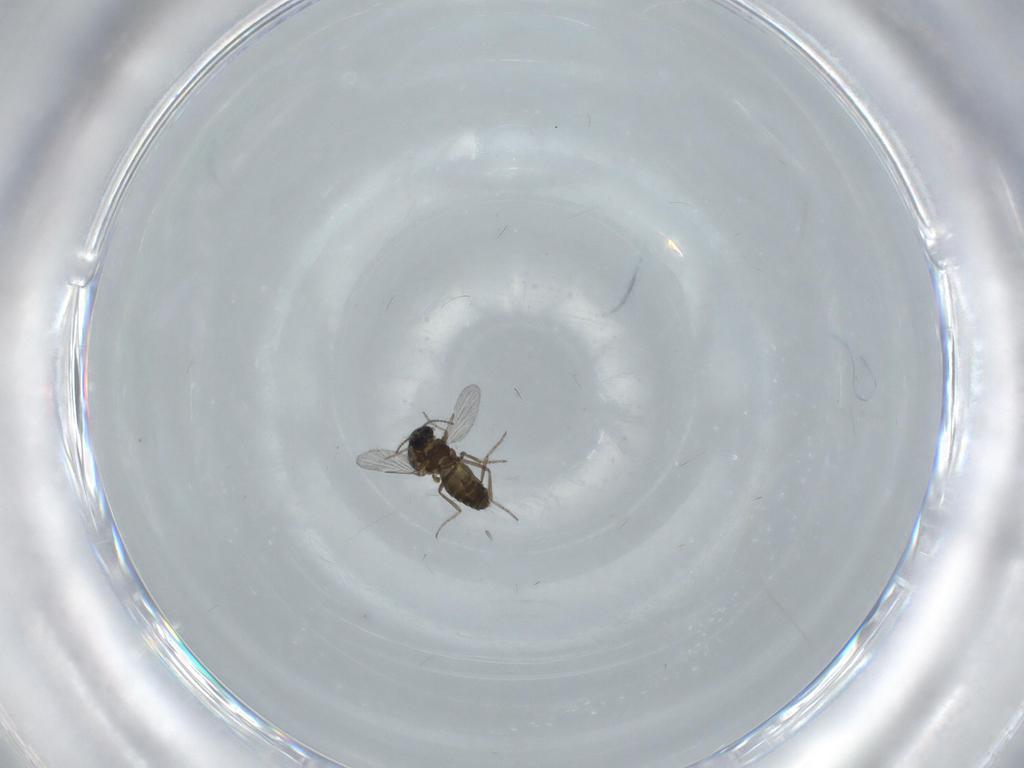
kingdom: Animalia
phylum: Arthropoda
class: Insecta
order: Diptera
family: Ceratopogonidae
